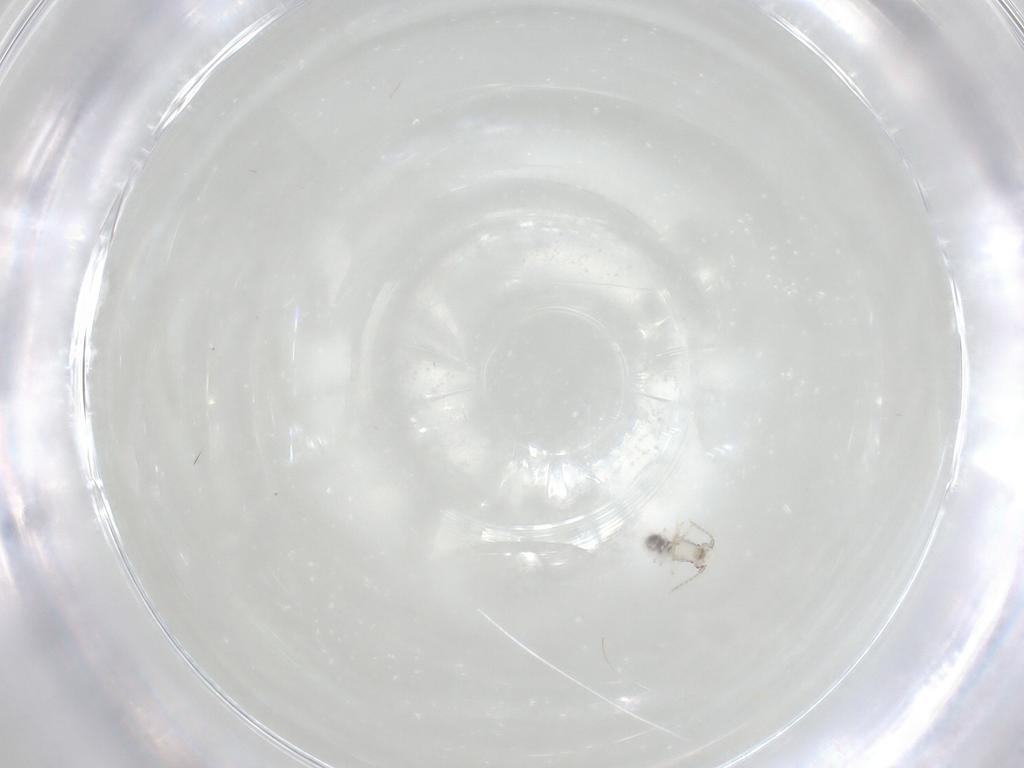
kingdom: Animalia
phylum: Arthropoda
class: Insecta
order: Psocodea
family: Caeciliusidae
